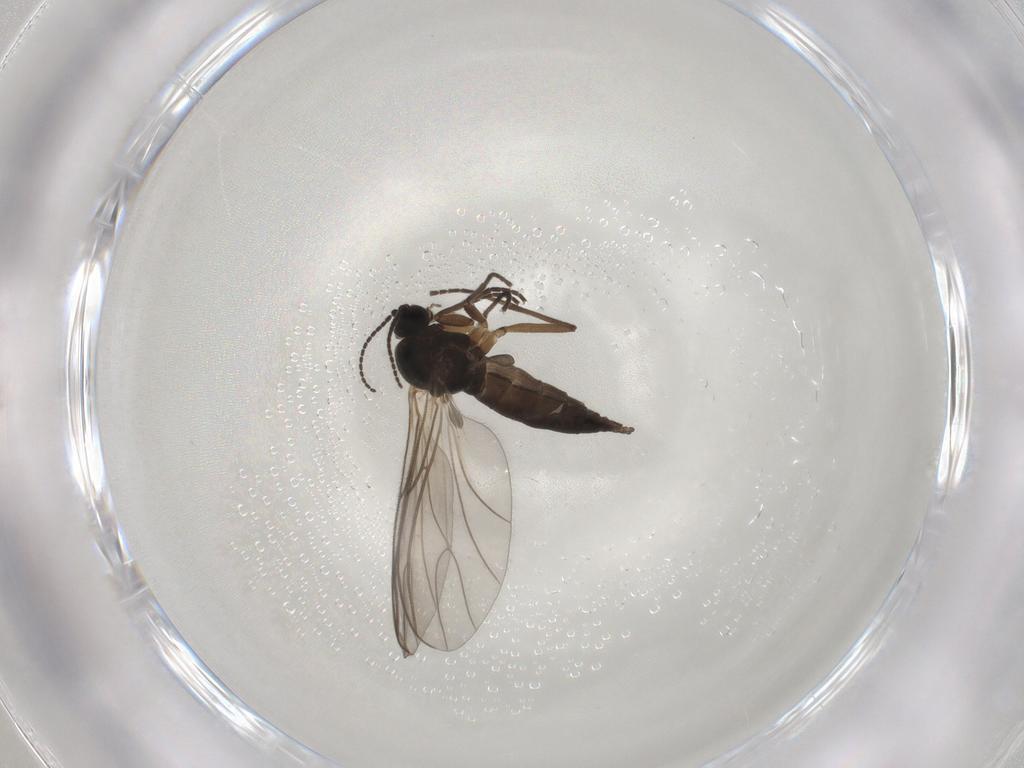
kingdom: Animalia
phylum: Arthropoda
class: Insecta
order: Diptera
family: Sciaridae
